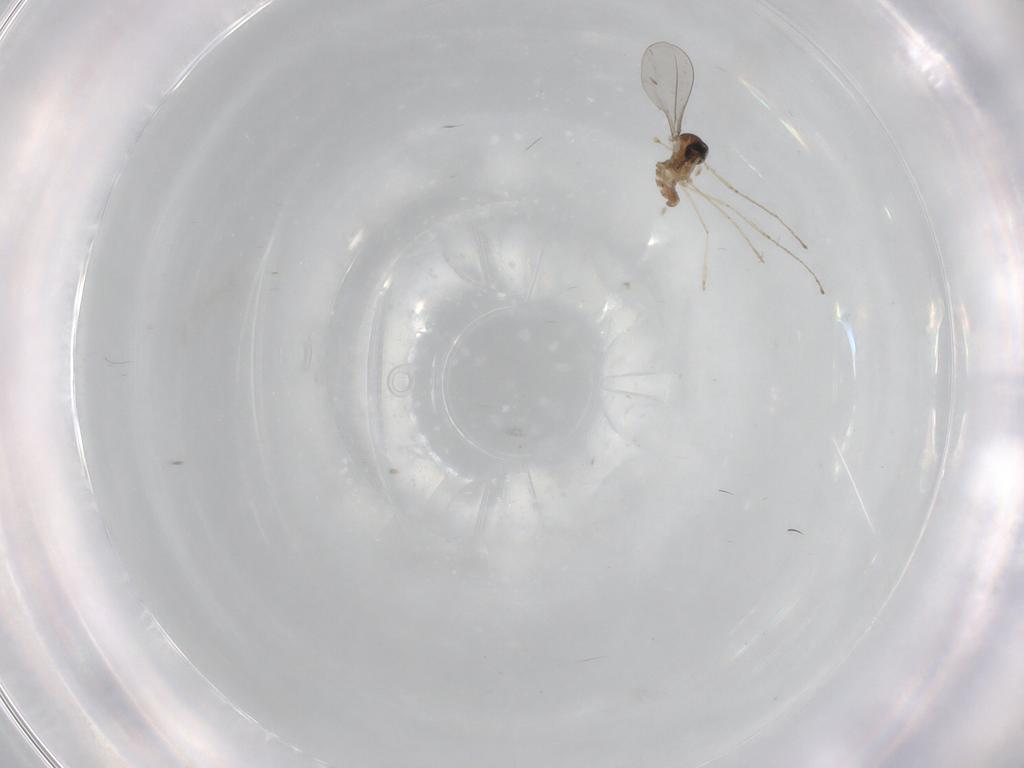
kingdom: Animalia
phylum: Arthropoda
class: Insecta
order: Diptera
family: Cecidomyiidae
